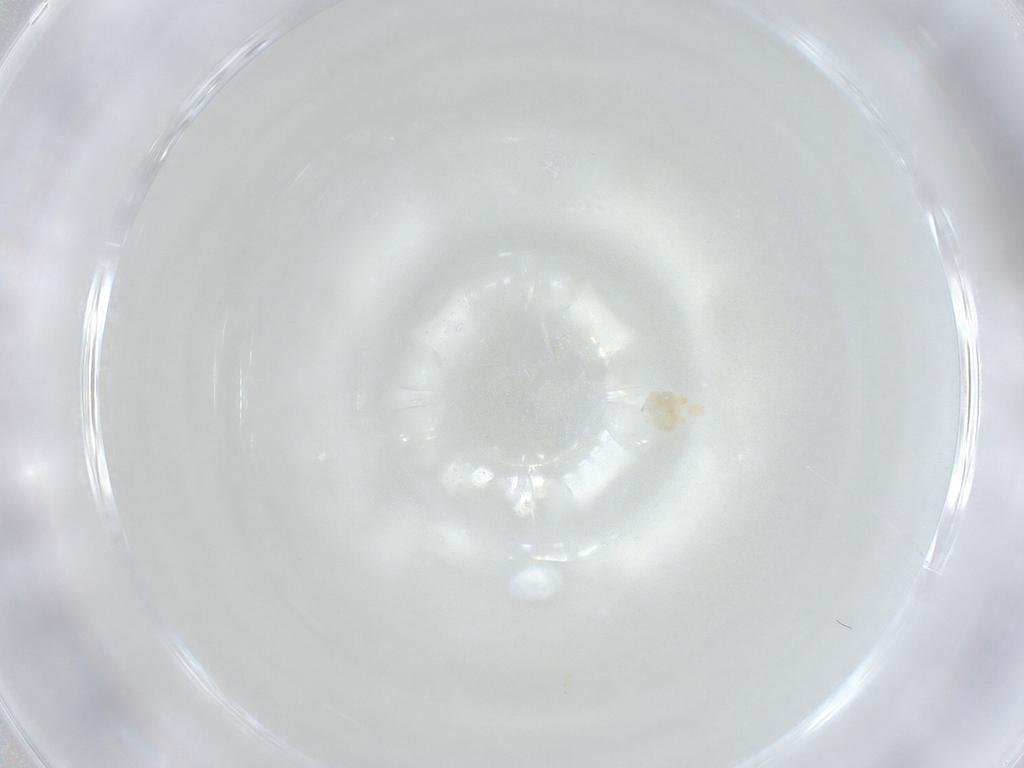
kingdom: Animalia
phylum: Arthropoda
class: Arachnida
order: Trombidiformes
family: Eupodidae
